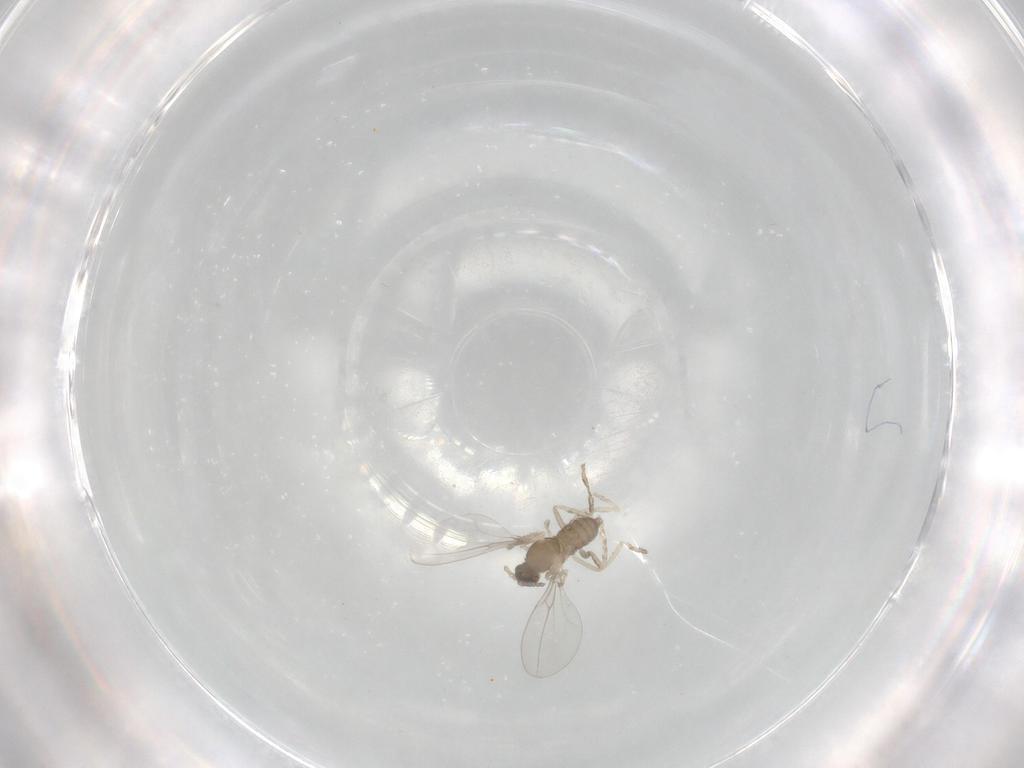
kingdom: Animalia
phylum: Arthropoda
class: Insecta
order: Diptera
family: Cecidomyiidae
